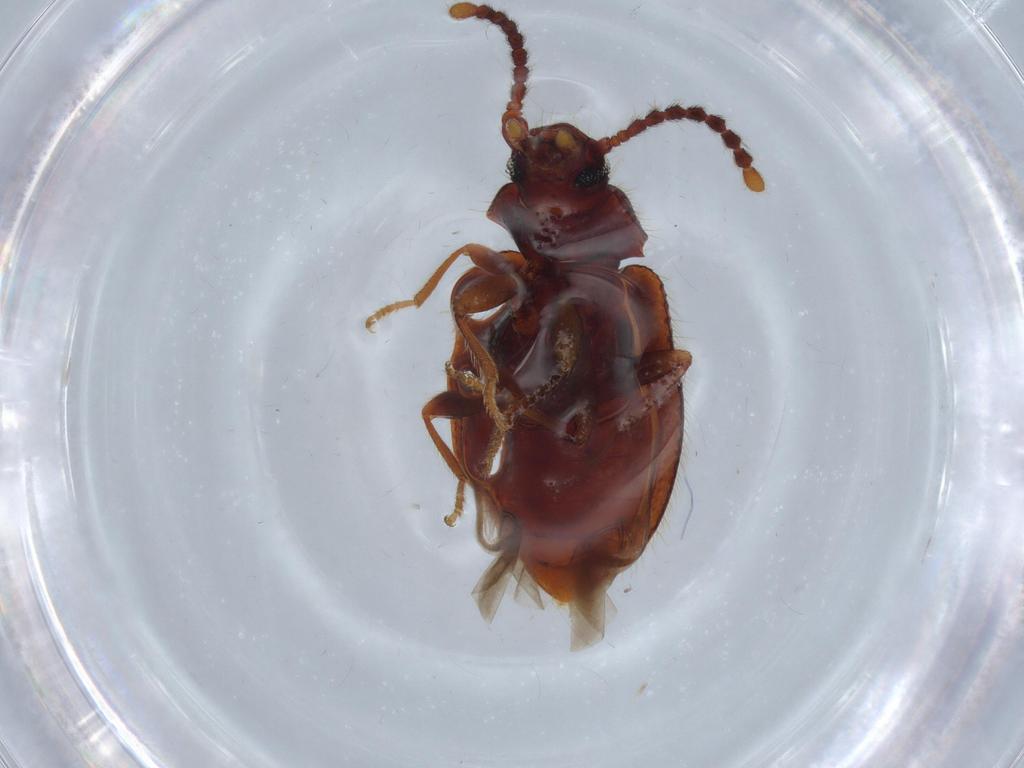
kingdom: Animalia
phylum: Arthropoda
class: Insecta
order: Coleoptera
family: Tenebrionidae
